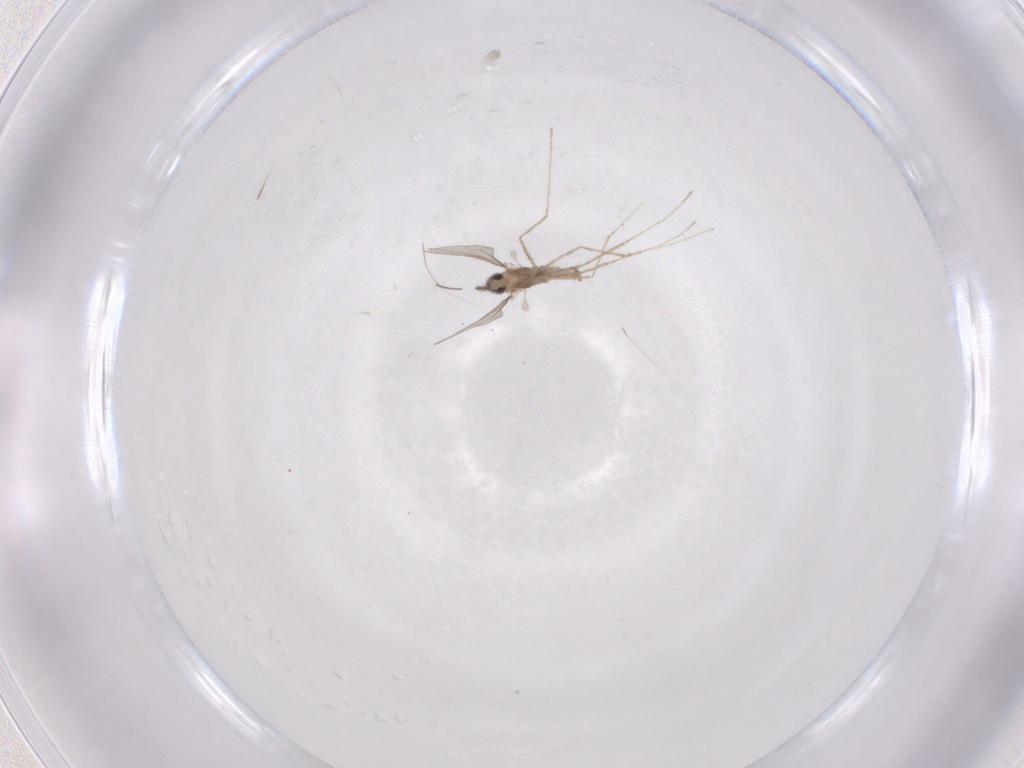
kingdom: Animalia
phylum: Arthropoda
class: Insecta
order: Diptera
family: Cecidomyiidae
